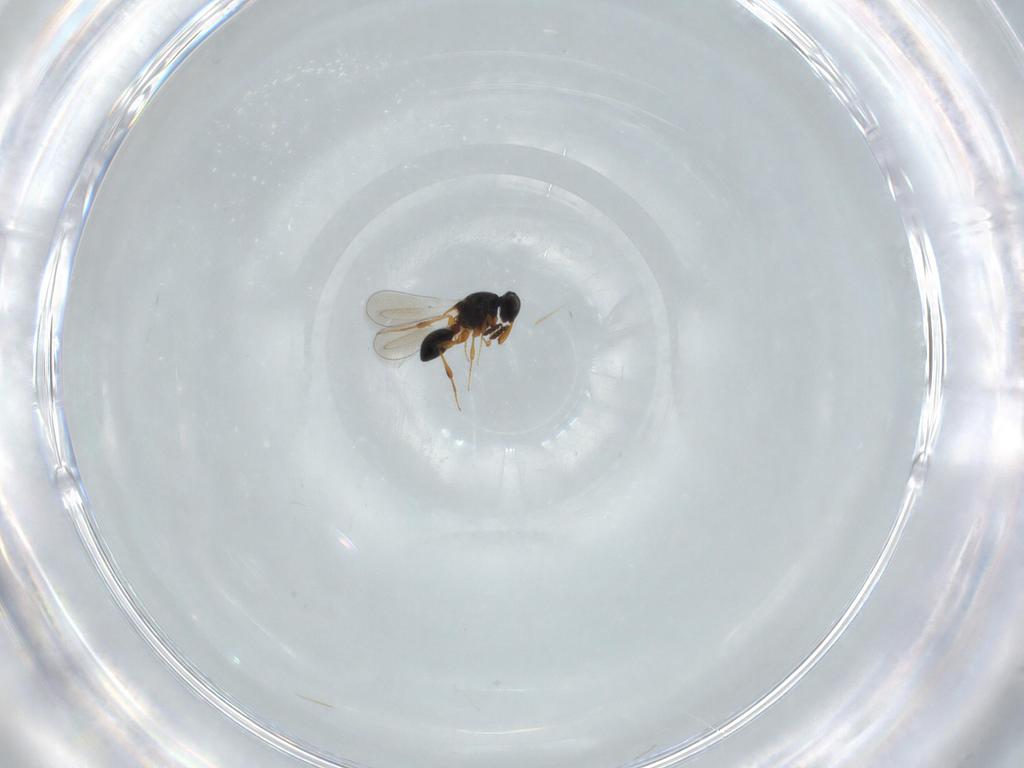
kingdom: Animalia
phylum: Arthropoda
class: Insecta
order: Hymenoptera
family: Platygastridae
